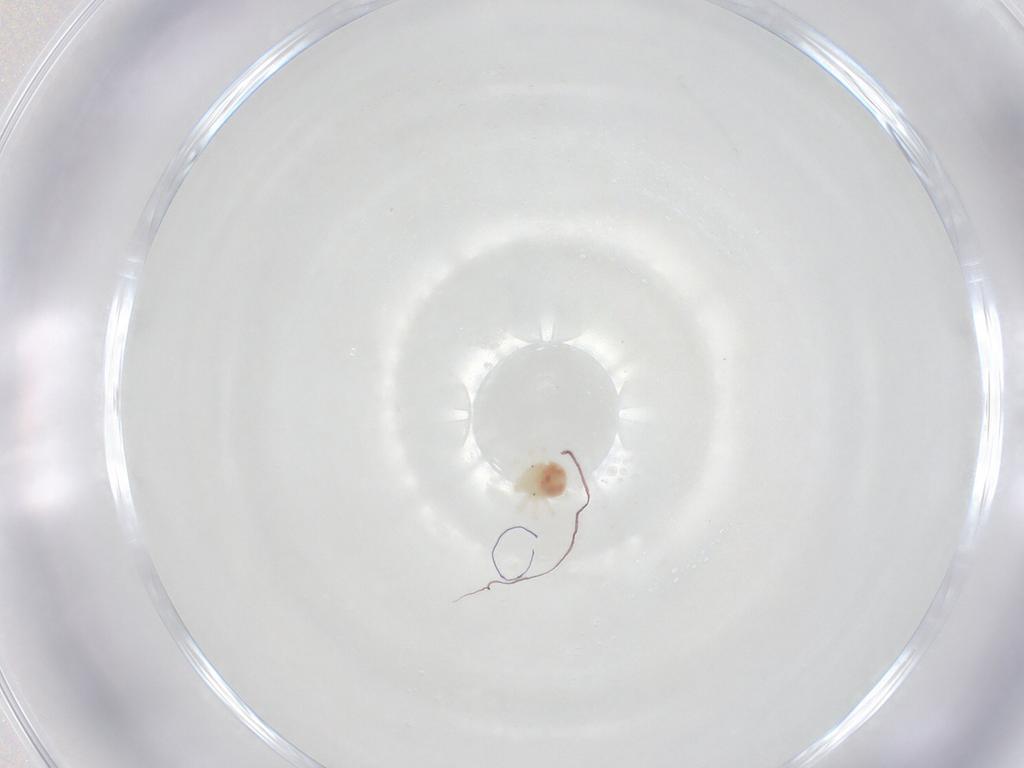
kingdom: Animalia
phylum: Arthropoda
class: Arachnida
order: Trombidiformes
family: Anystidae
